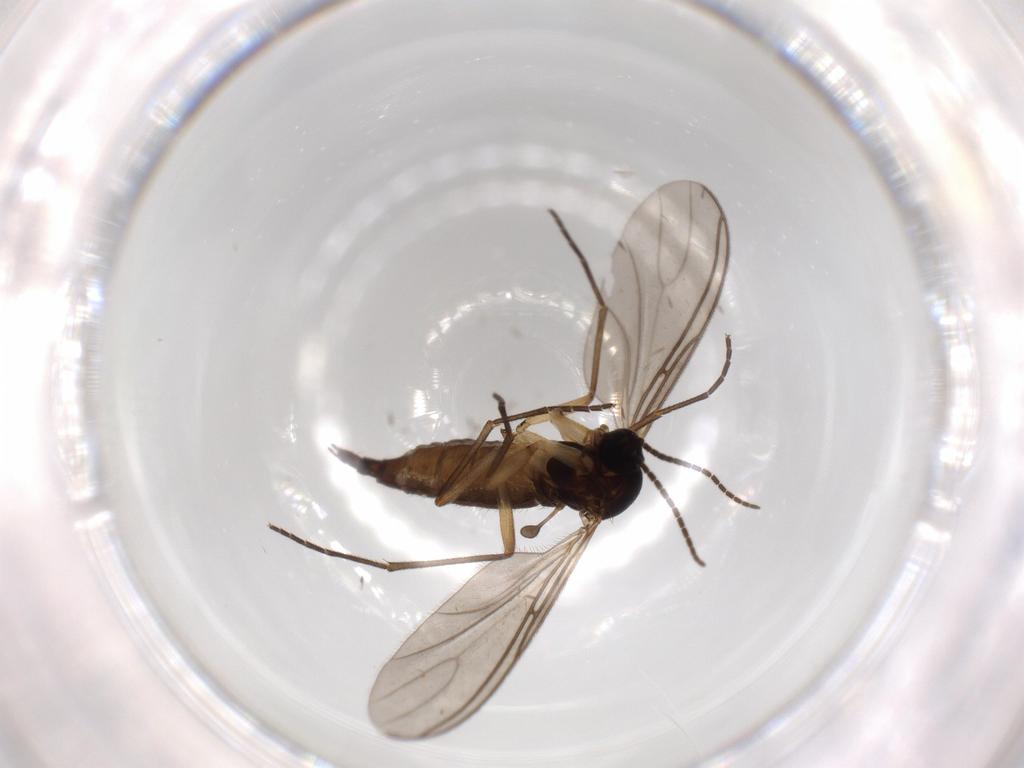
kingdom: Animalia
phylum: Arthropoda
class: Insecta
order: Diptera
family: Sciaridae
